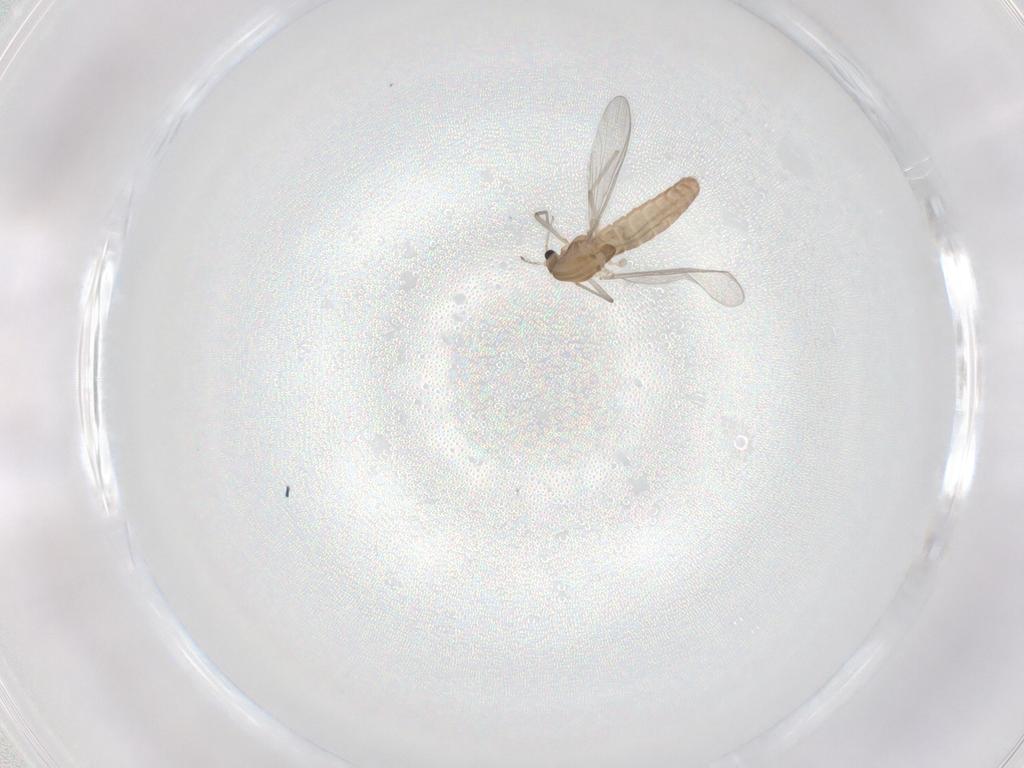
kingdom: Animalia
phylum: Arthropoda
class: Insecta
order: Diptera
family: Chironomidae
